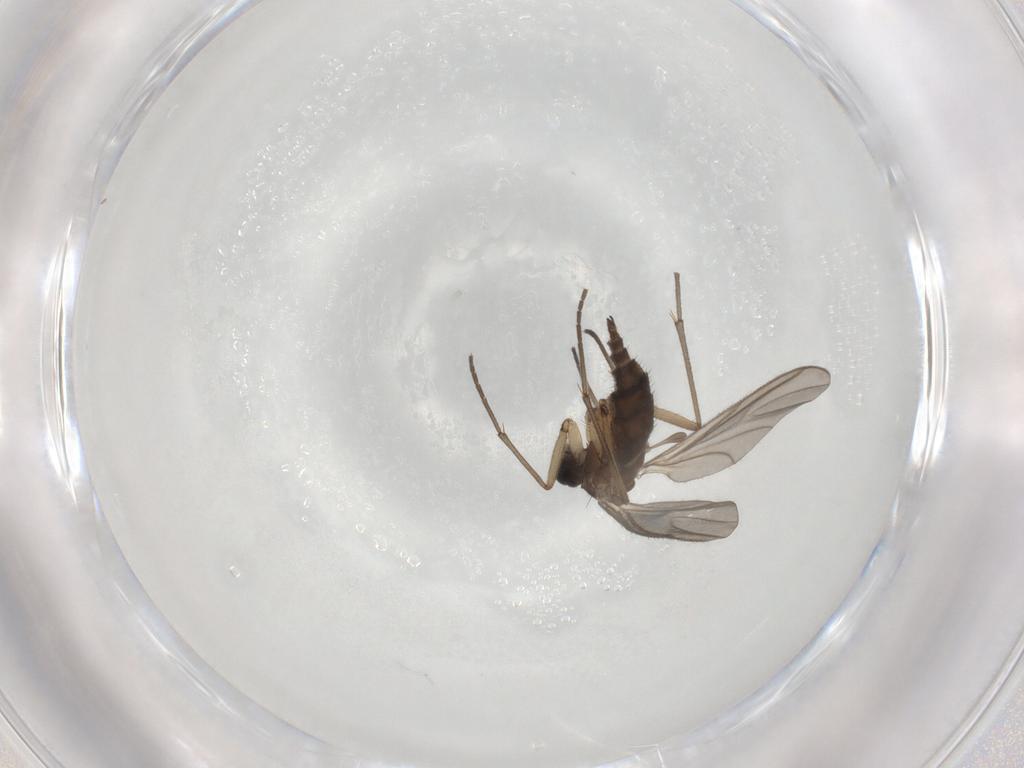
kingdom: Animalia
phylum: Arthropoda
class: Insecta
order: Diptera
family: Sciaridae
